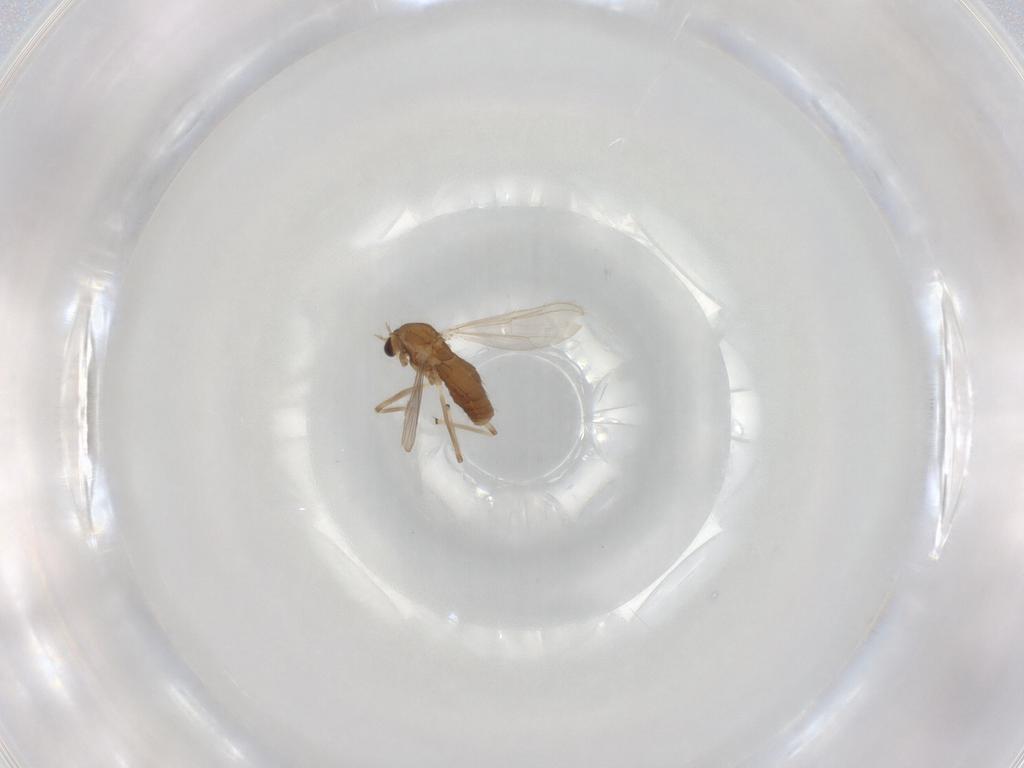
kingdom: Animalia
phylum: Arthropoda
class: Insecta
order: Diptera
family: Chironomidae
